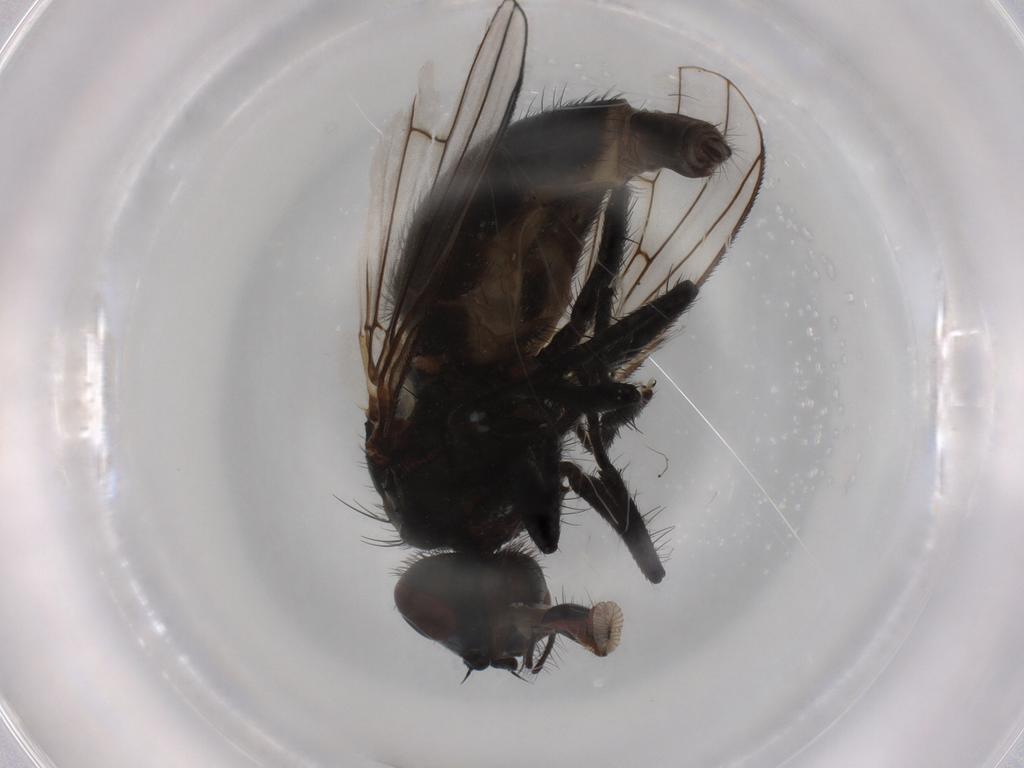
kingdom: Animalia
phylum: Arthropoda
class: Insecta
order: Diptera
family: Muscidae
